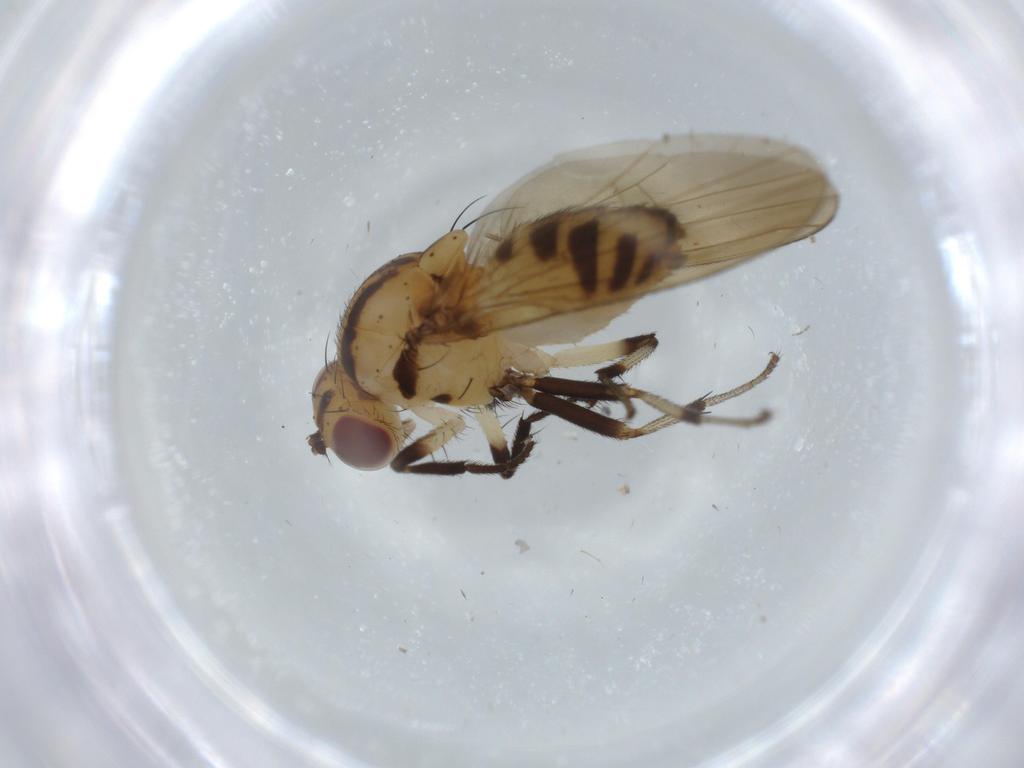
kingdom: Animalia
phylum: Arthropoda
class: Insecta
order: Diptera
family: Lauxaniidae
